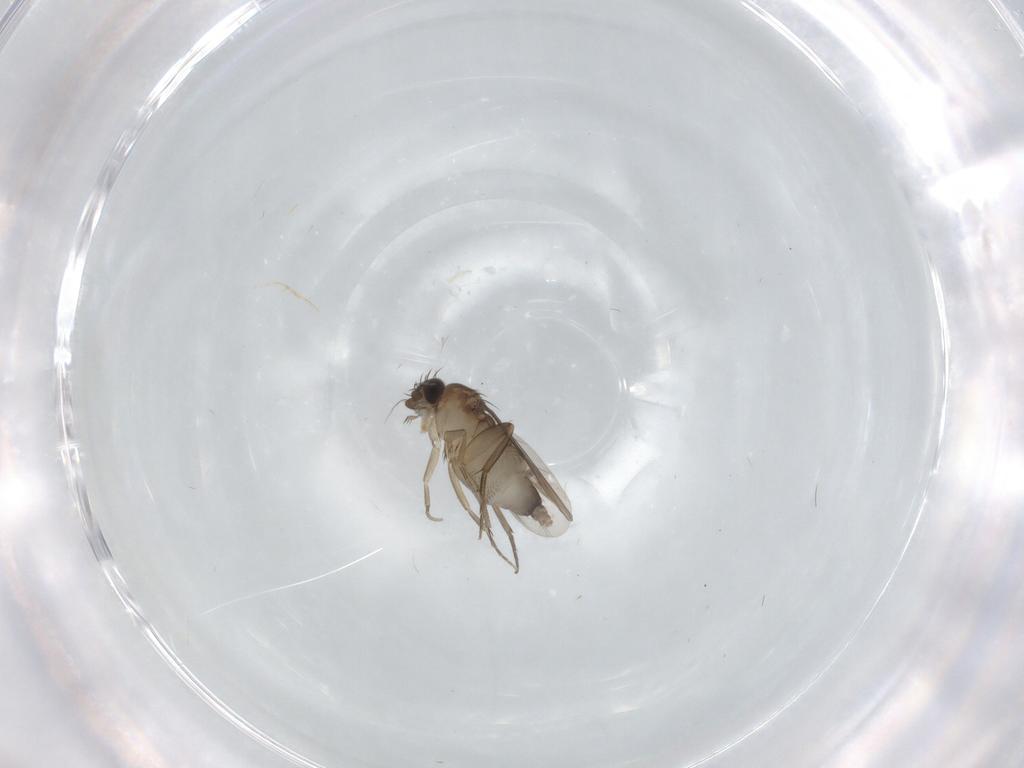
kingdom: Animalia
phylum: Arthropoda
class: Insecta
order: Diptera
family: Phoridae
